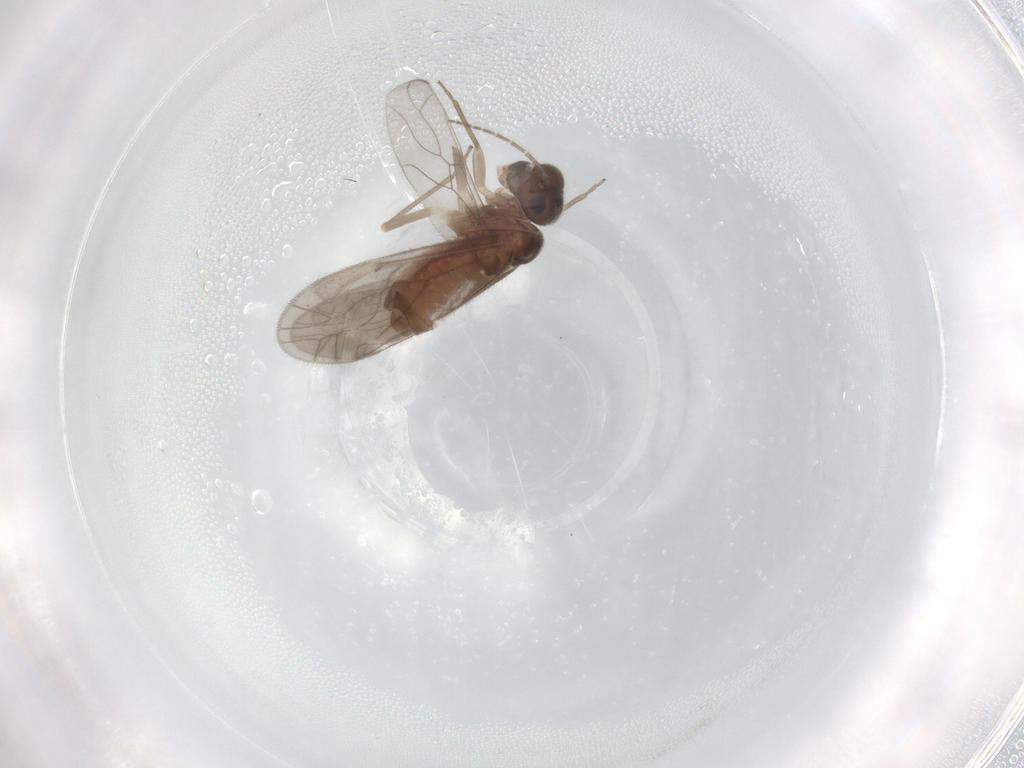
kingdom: Animalia
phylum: Arthropoda
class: Insecta
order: Psocodea
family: Caeciliusidae
